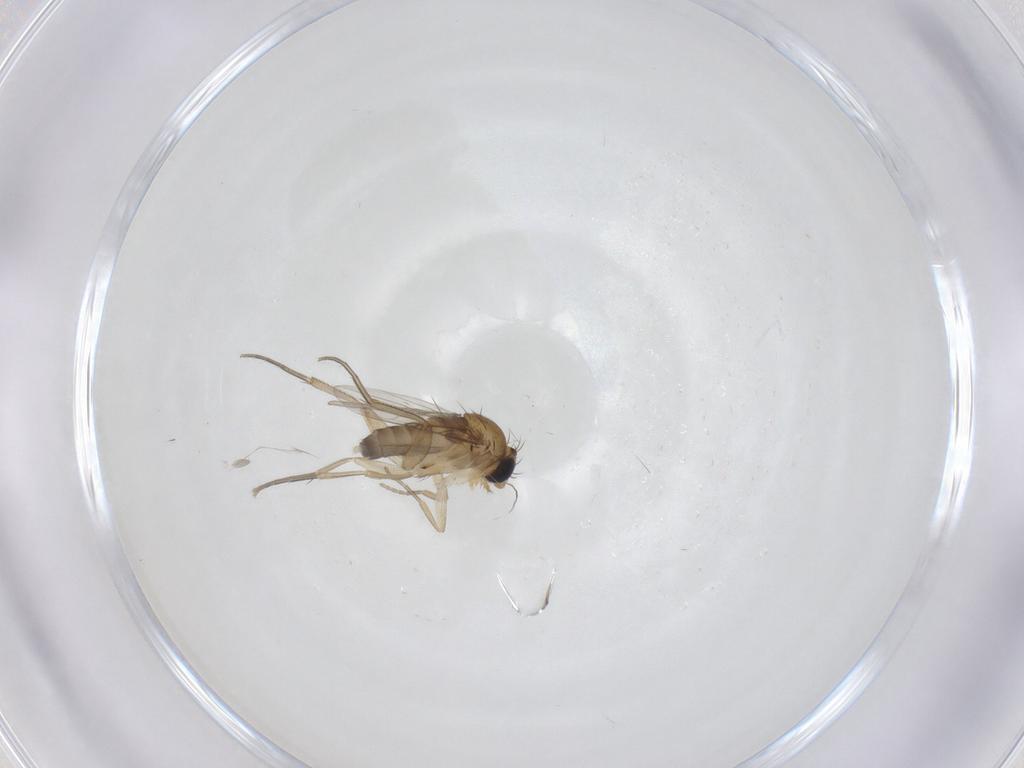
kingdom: Animalia
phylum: Arthropoda
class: Insecta
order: Diptera
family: Phoridae
